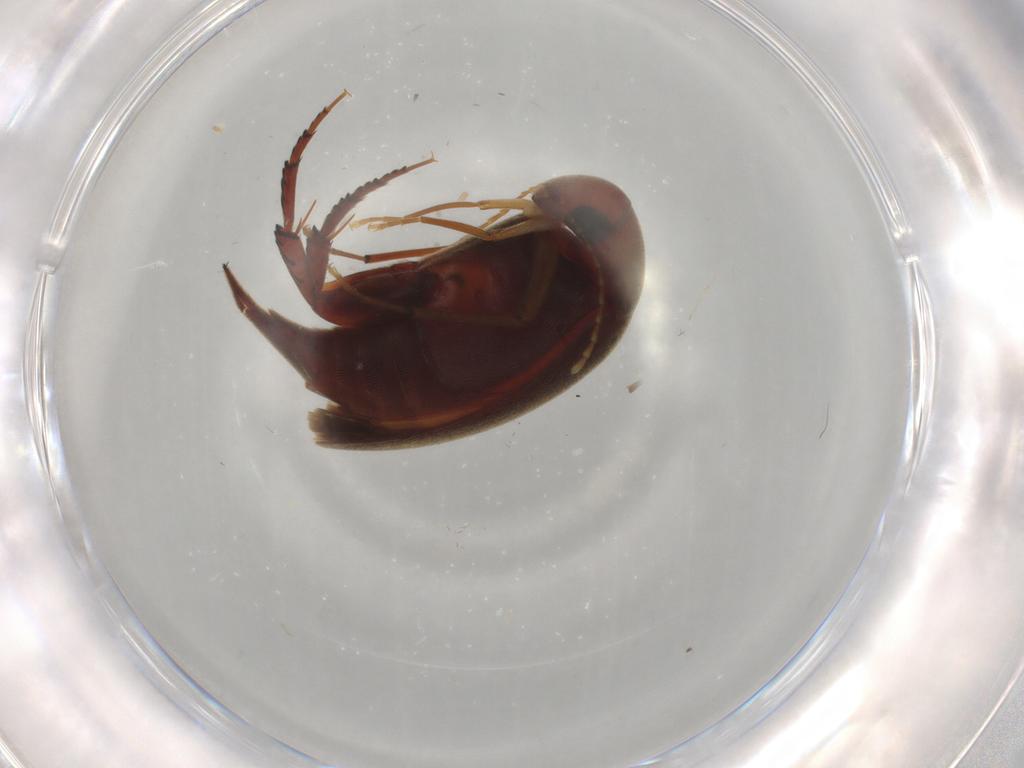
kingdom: Animalia
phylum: Arthropoda
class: Insecta
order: Coleoptera
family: Mordellidae
